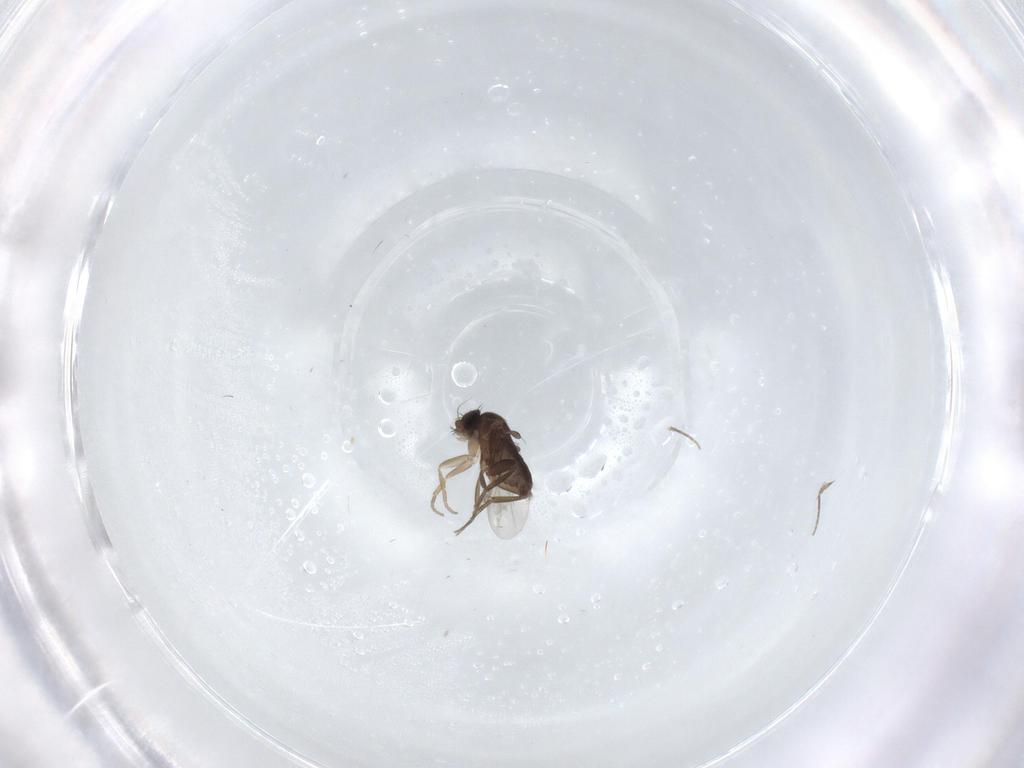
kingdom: Animalia
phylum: Arthropoda
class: Insecta
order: Diptera
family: Phoridae
